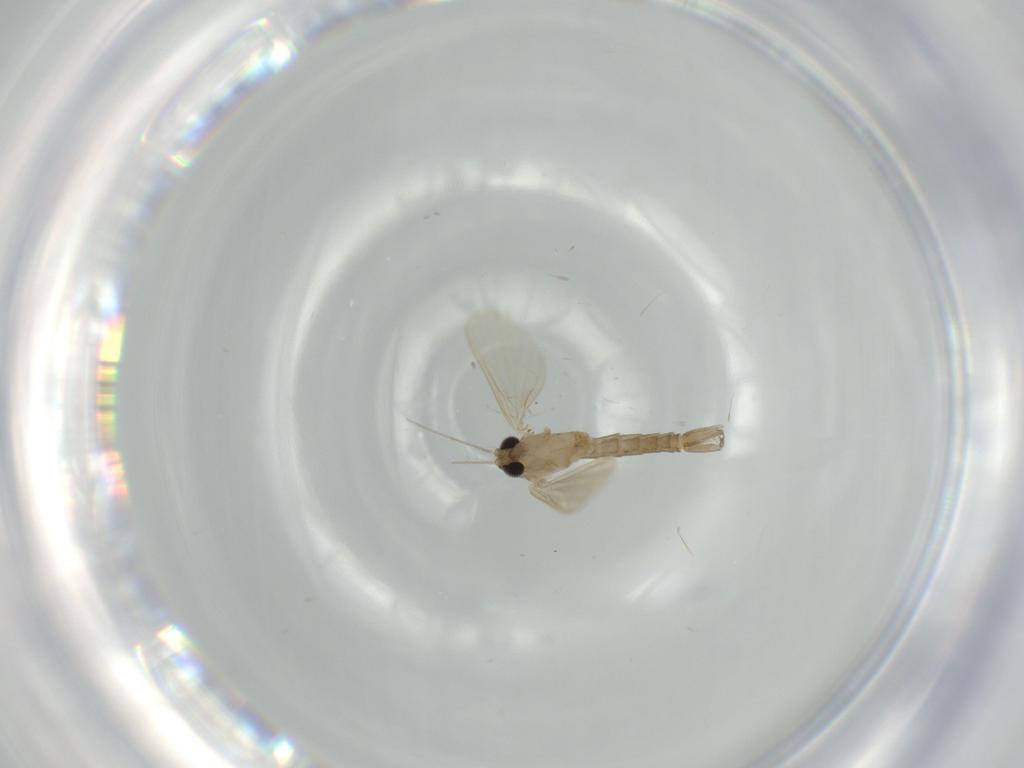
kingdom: Animalia
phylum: Arthropoda
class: Insecta
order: Diptera
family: Psychodidae
